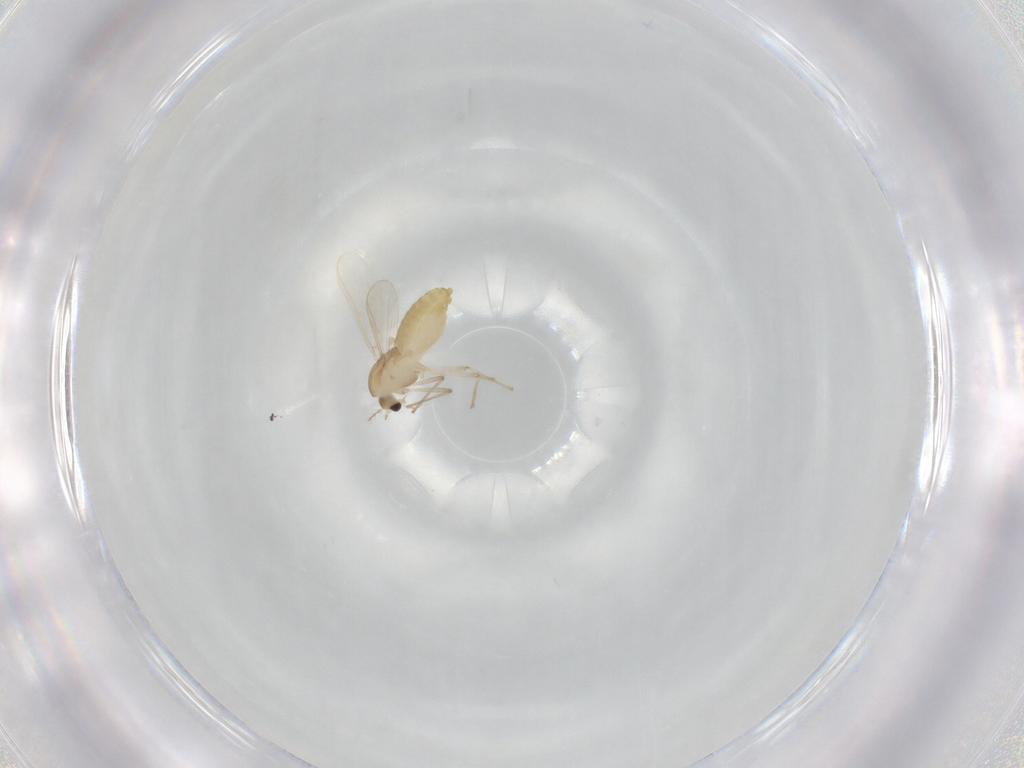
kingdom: Animalia
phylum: Arthropoda
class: Insecta
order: Diptera
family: Chironomidae
